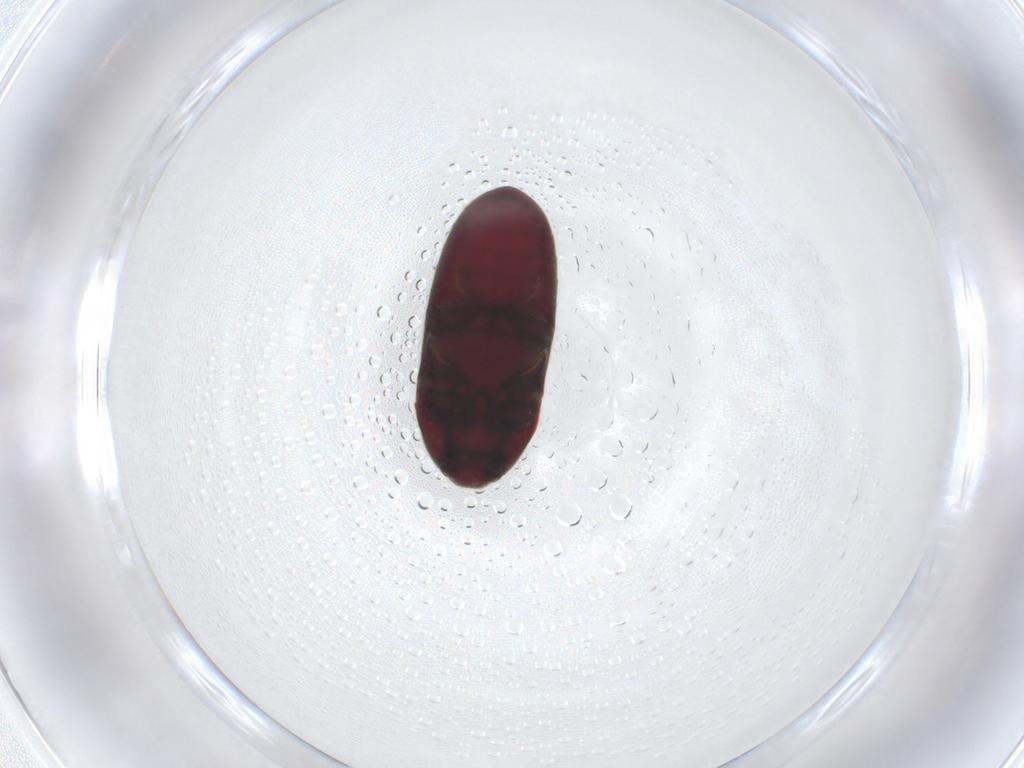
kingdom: Animalia
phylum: Arthropoda
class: Insecta
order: Coleoptera
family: Throscidae
